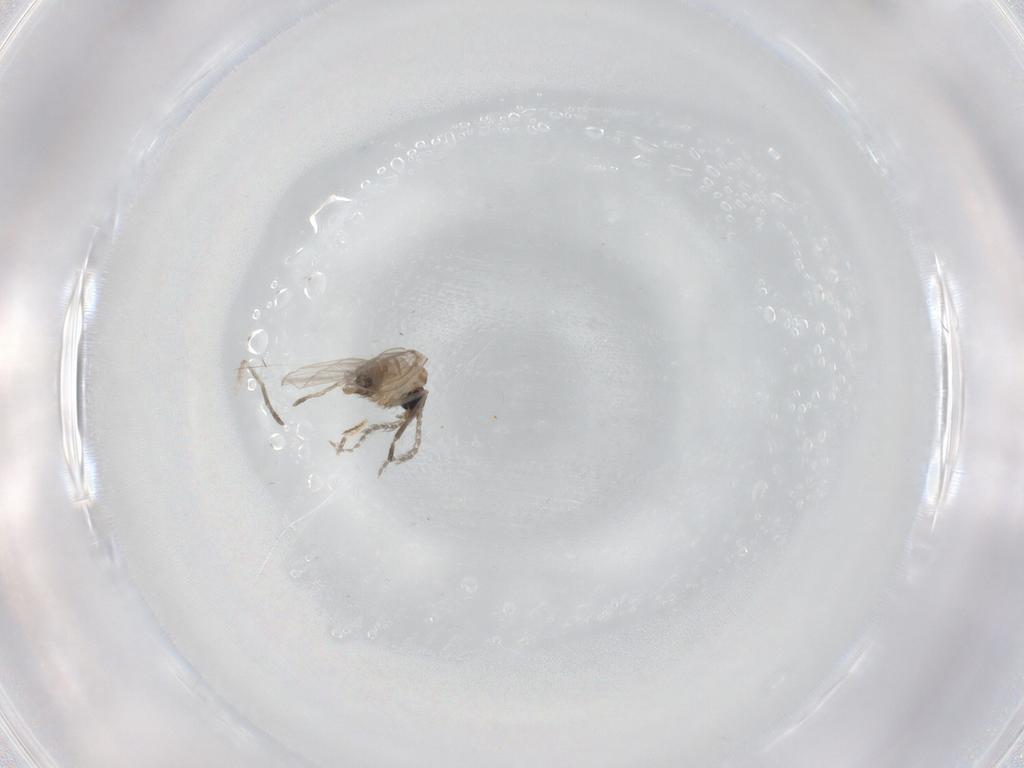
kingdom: Animalia
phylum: Arthropoda
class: Insecta
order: Diptera
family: Psychodidae
